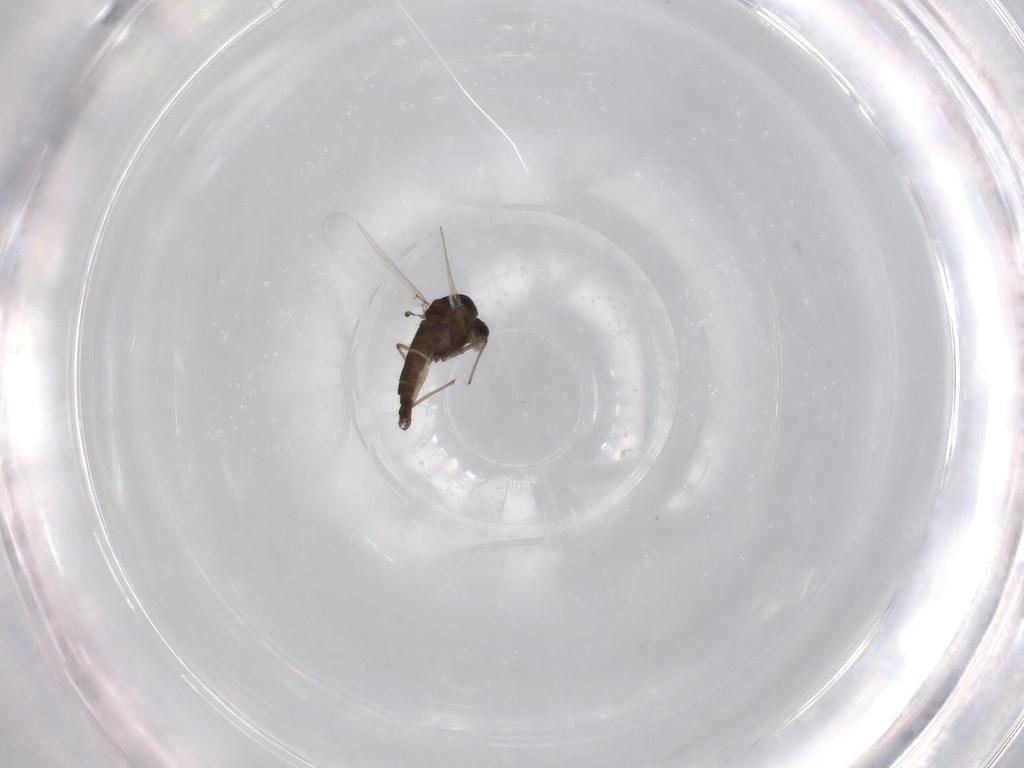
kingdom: Animalia
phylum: Arthropoda
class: Insecta
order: Diptera
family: Chironomidae
